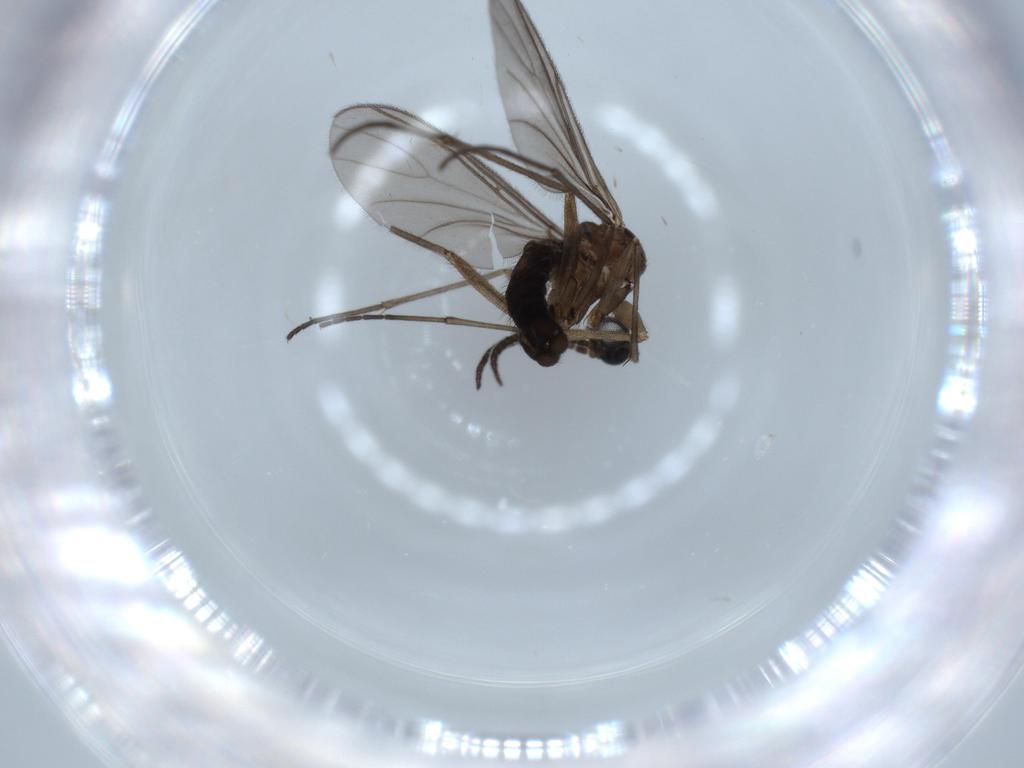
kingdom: Animalia
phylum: Arthropoda
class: Insecta
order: Diptera
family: Sciaridae
